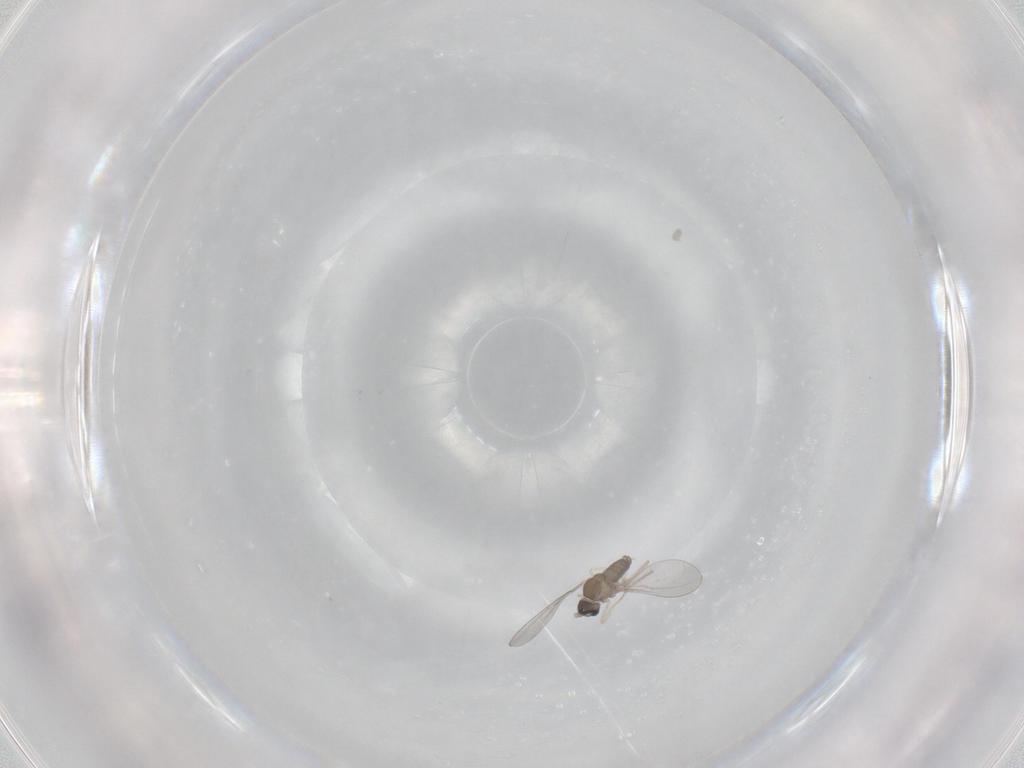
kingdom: Animalia
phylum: Arthropoda
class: Insecta
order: Diptera
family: Cecidomyiidae
